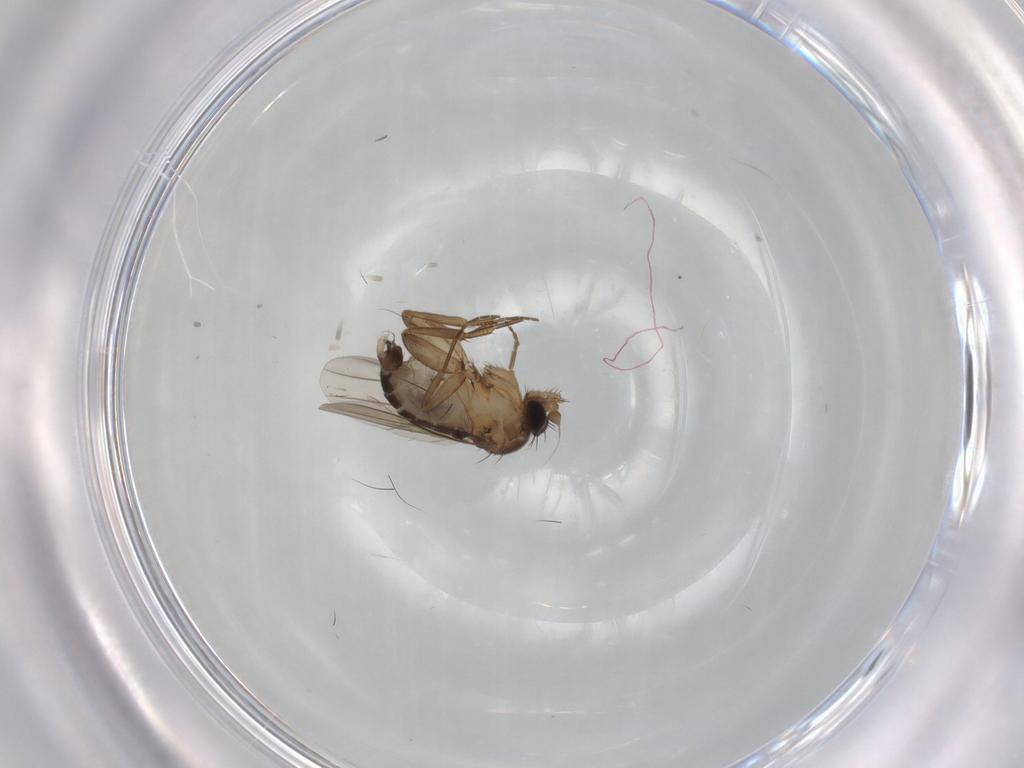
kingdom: Animalia
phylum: Arthropoda
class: Insecta
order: Diptera
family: Phoridae
